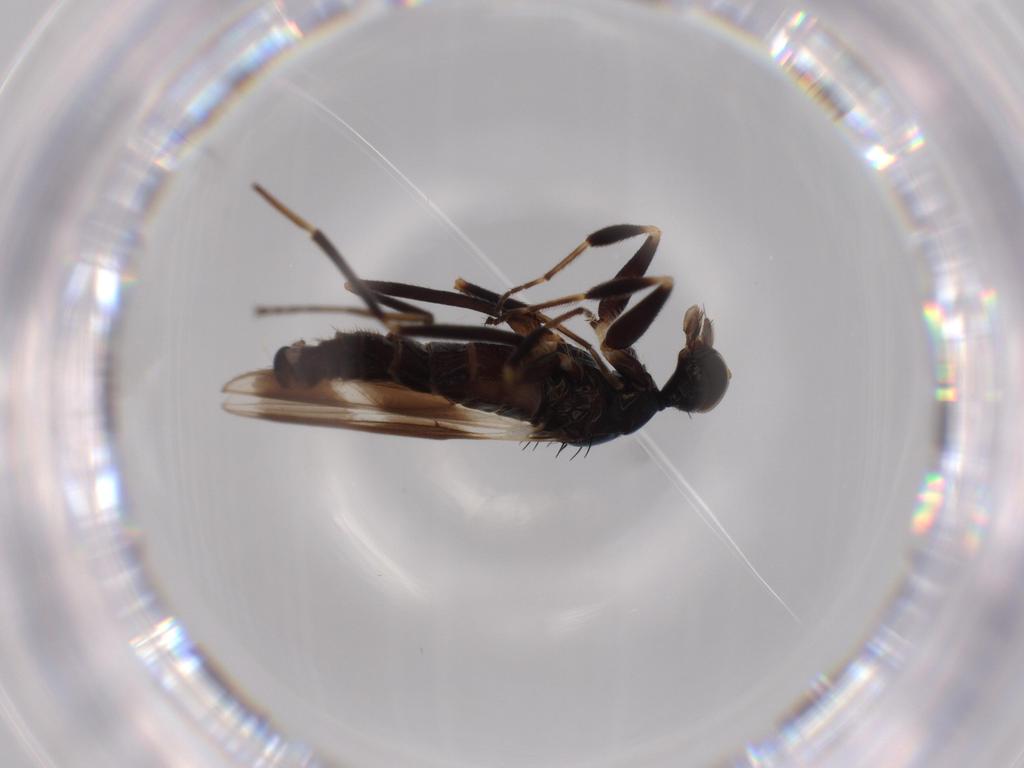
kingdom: Animalia
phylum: Arthropoda
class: Insecta
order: Diptera
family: Hybotidae
